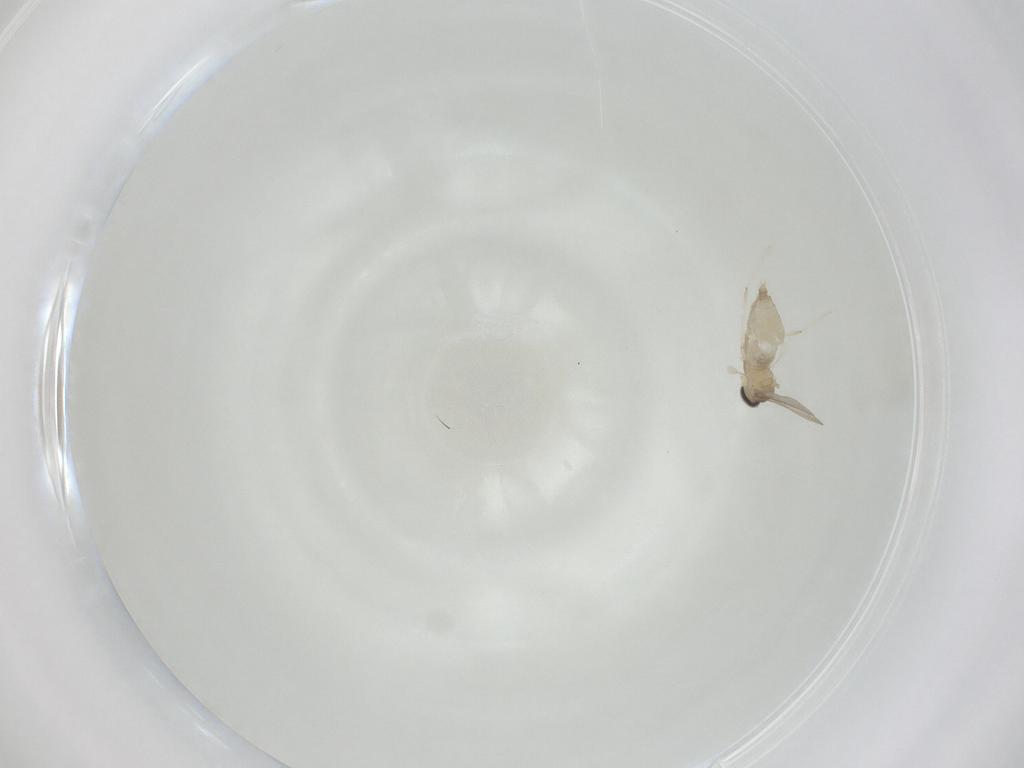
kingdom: Animalia
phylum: Arthropoda
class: Insecta
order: Diptera
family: Cecidomyiidae
